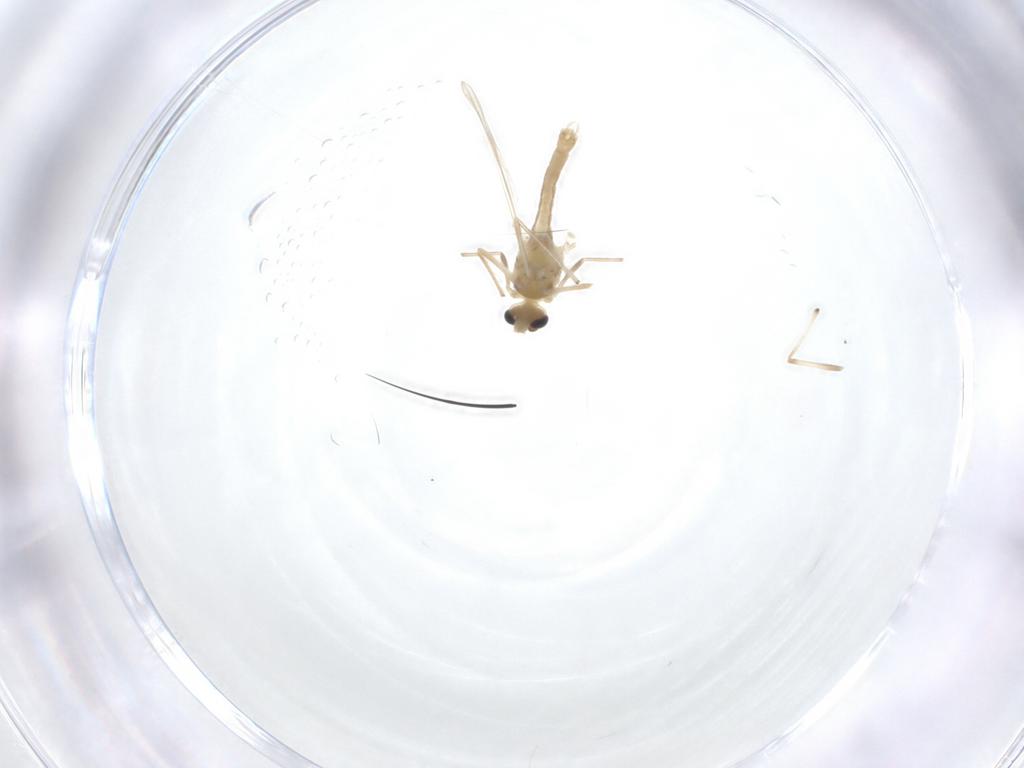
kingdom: Animalia
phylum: Arthropoda
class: Insecta
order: Diptera
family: Chironomidae
